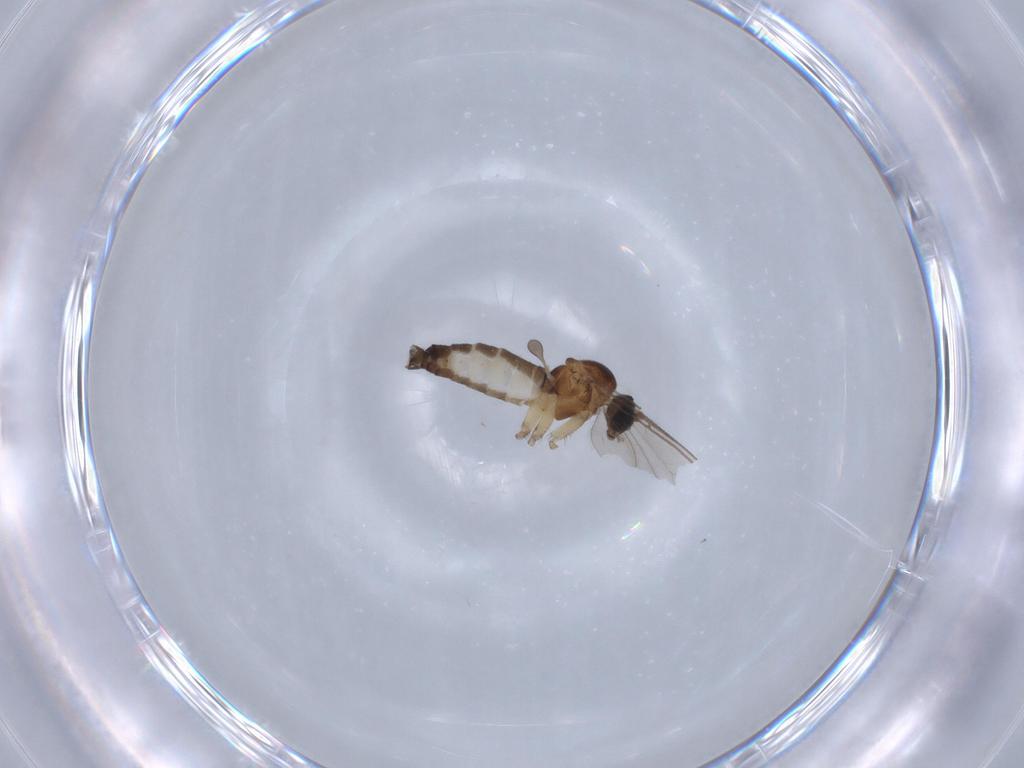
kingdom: Animalia
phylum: Arthropoda
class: Insecta
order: Diptera
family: Sciaridae
